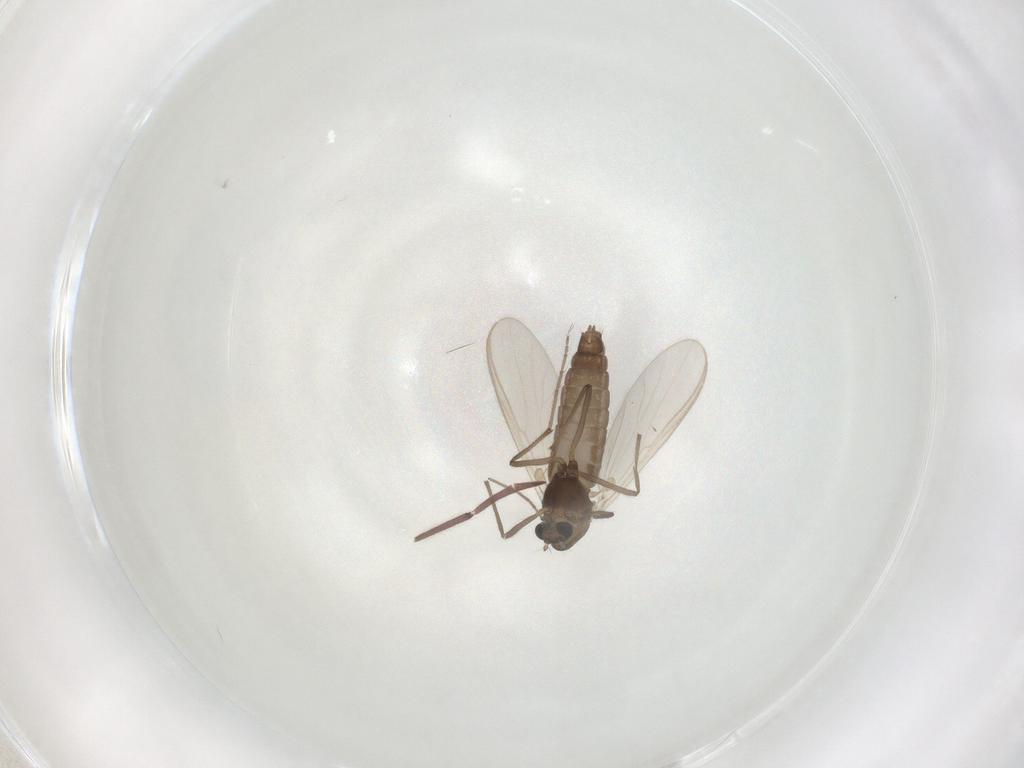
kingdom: Animalia
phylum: Arthropoda
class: Insecta
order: Diptera
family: Chironomidae
